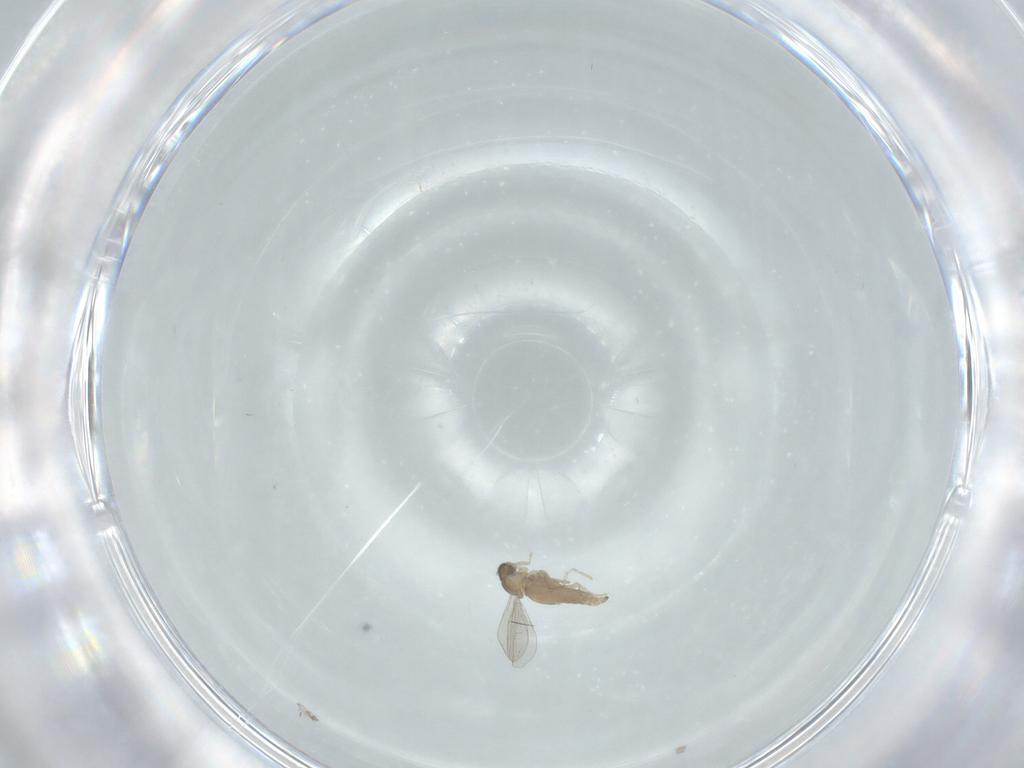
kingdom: Animalia
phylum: Arthropoda
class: Insecta
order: Diptera
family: Cecidomyiidae
